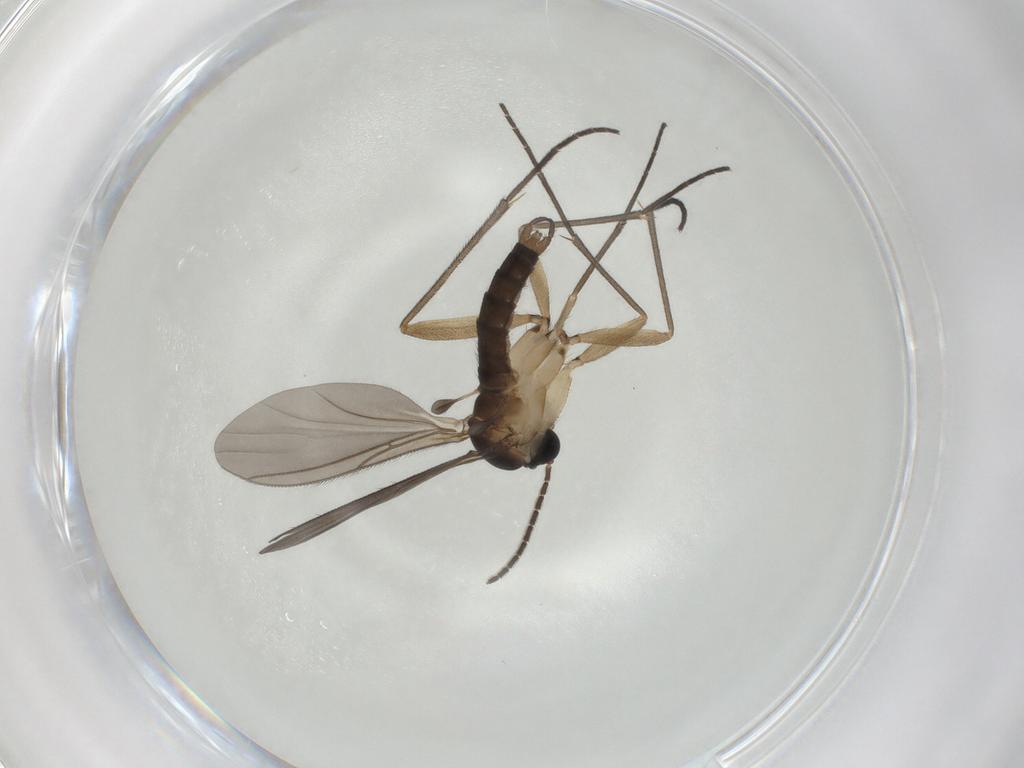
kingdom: Animalia
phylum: Arthropoda
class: Insecta
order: Diptera
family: Sciaridae
